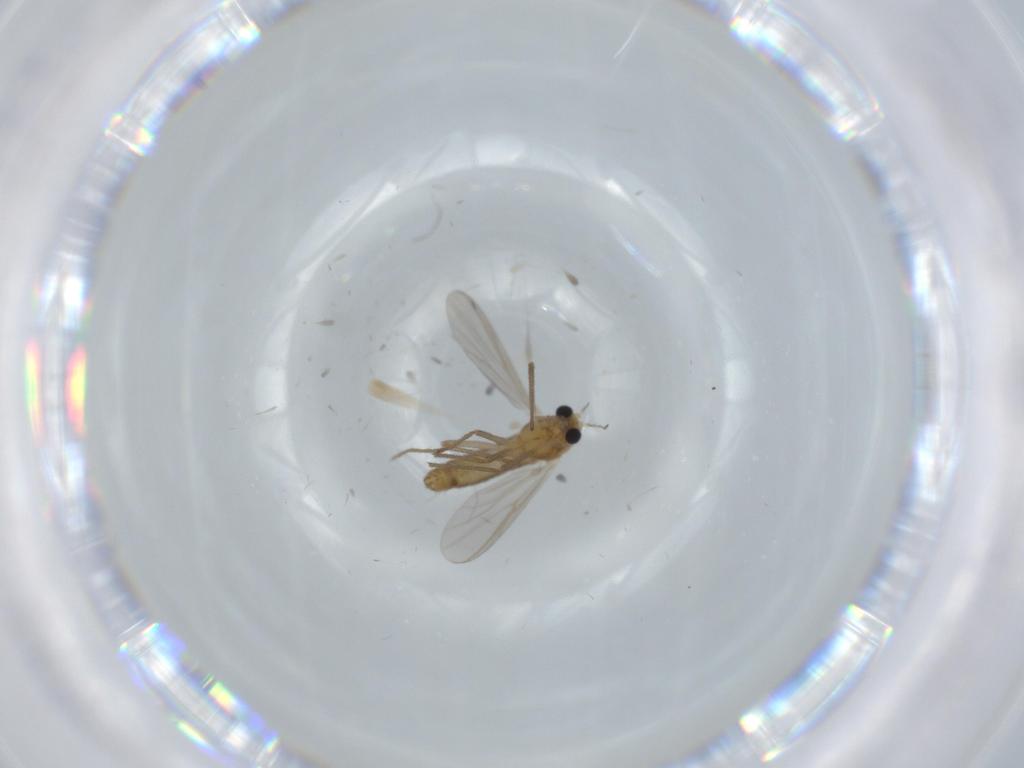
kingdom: Animalia
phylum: Arthropoda
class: Insecta
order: Diptera
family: Chironomidae
